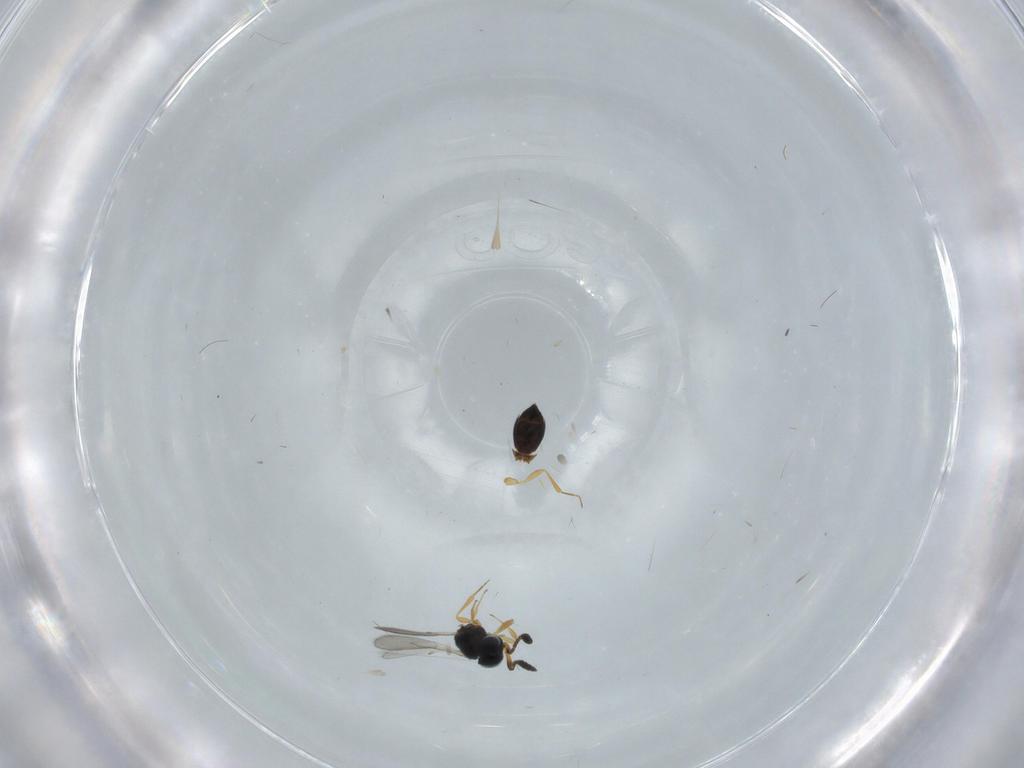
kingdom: Animalia
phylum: Arthropoda
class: Insecta
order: Hymenoptera
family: Scelionidae
